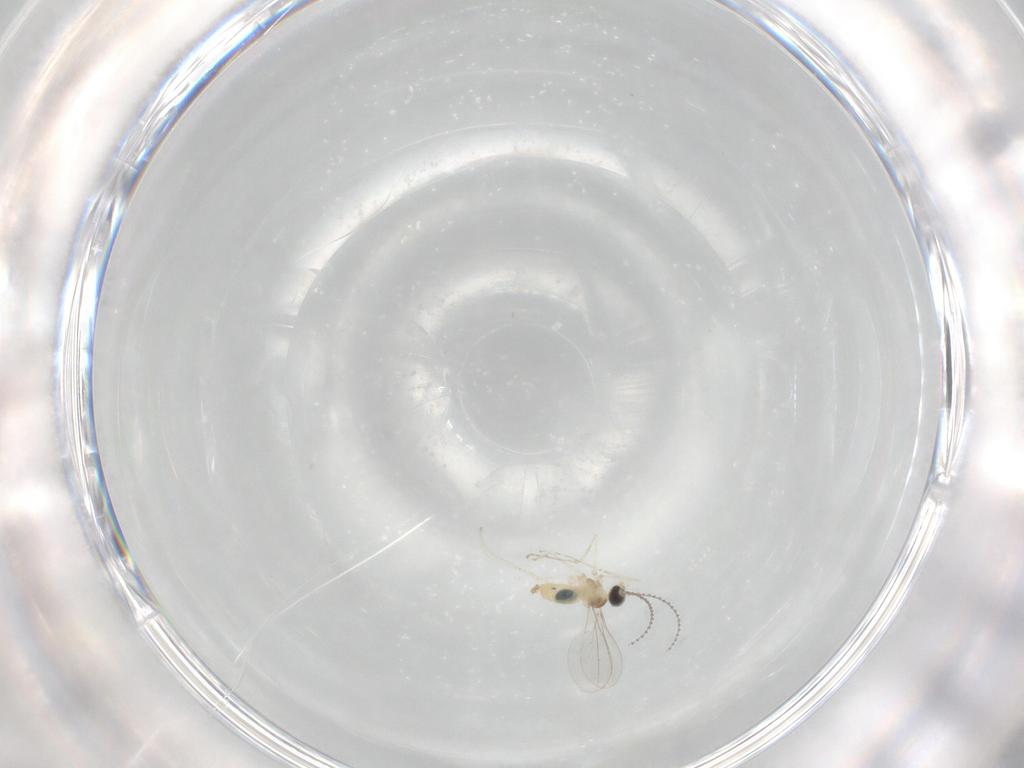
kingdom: Animalia
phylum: Arthropoda
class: Insecta
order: Diptera
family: Cecidomyiidae
